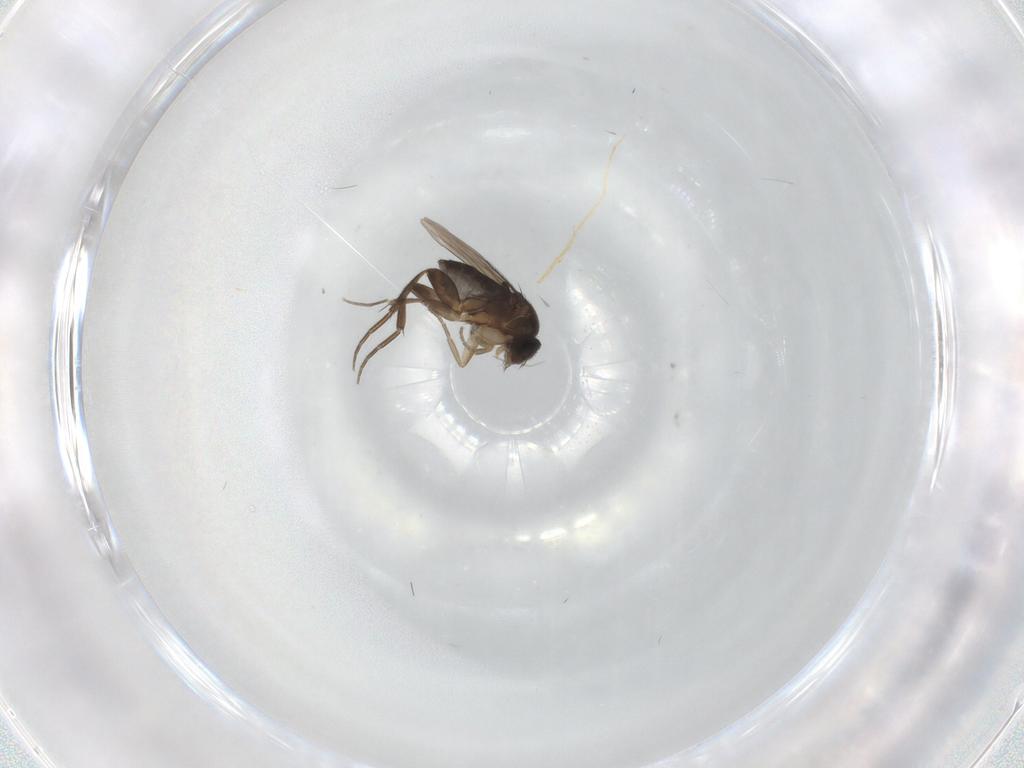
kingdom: Animalia
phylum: Arthropoda
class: Insecta
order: Diptera
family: Phoridae
